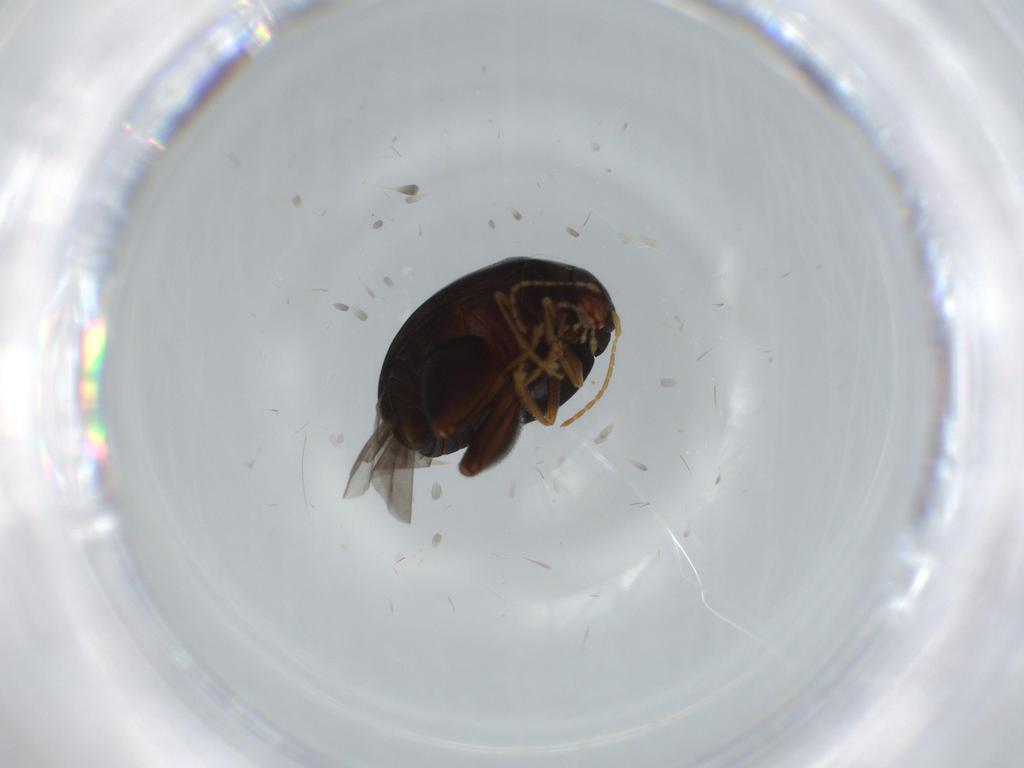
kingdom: Animalia
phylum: Arthropoda
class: Insecta
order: Coleoptera
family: Chrysomelidae
